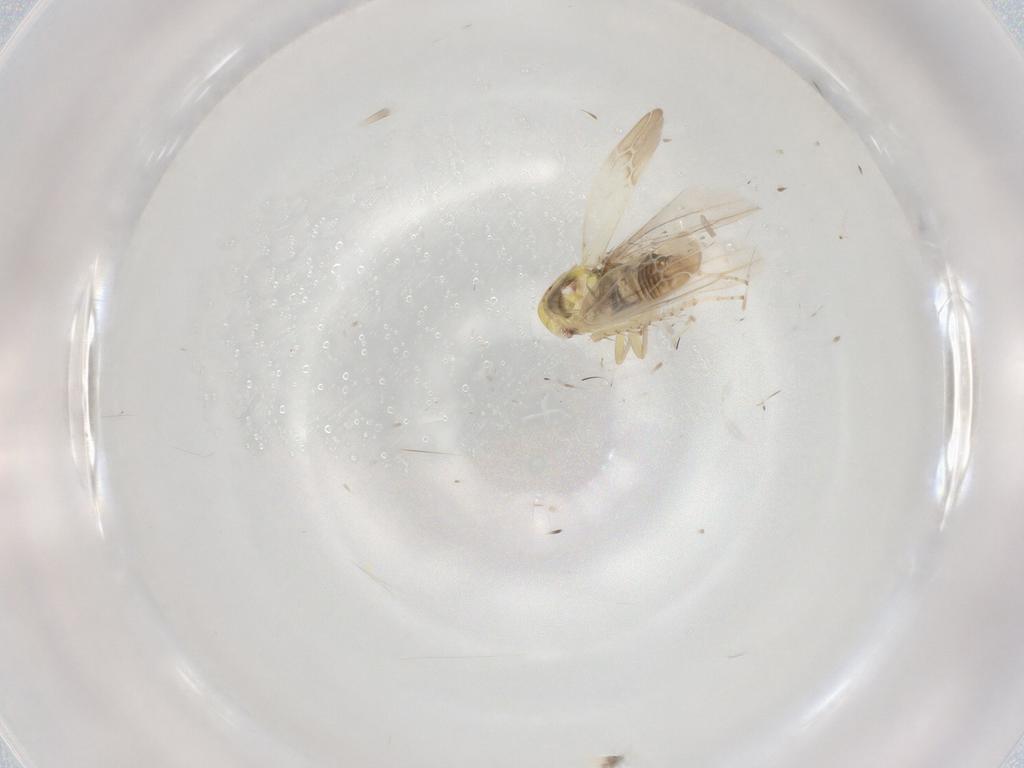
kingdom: Animalia
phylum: Arthropoda
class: Insecta
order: Hemiptera
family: Cicadellidae
